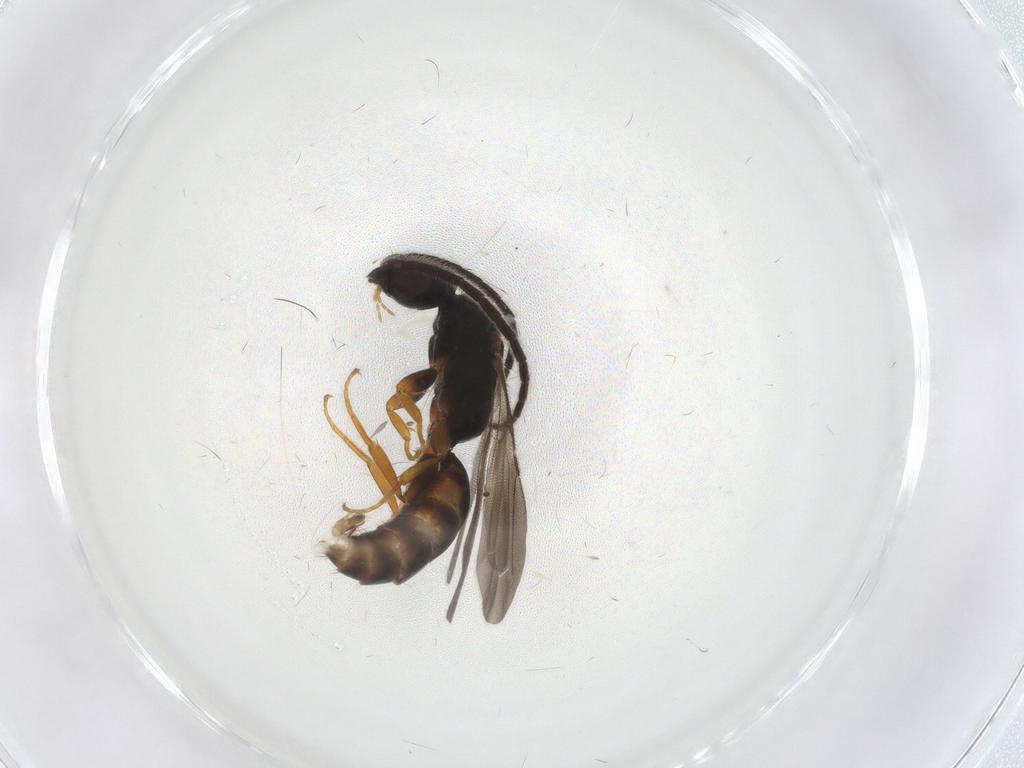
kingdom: Animalia
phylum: Arthropoda
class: Insecta
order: Hymenoptera
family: Bethylidae
